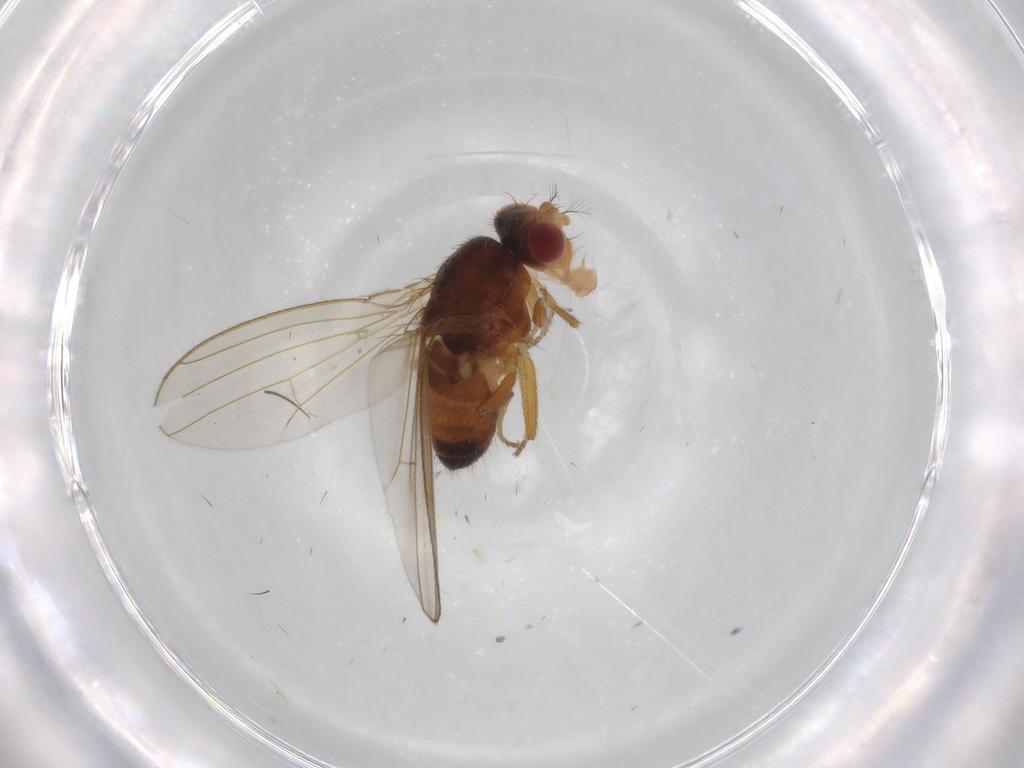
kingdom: Animalia
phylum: Arthropoda
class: Insecta
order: Diptera
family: Drosophilidae
